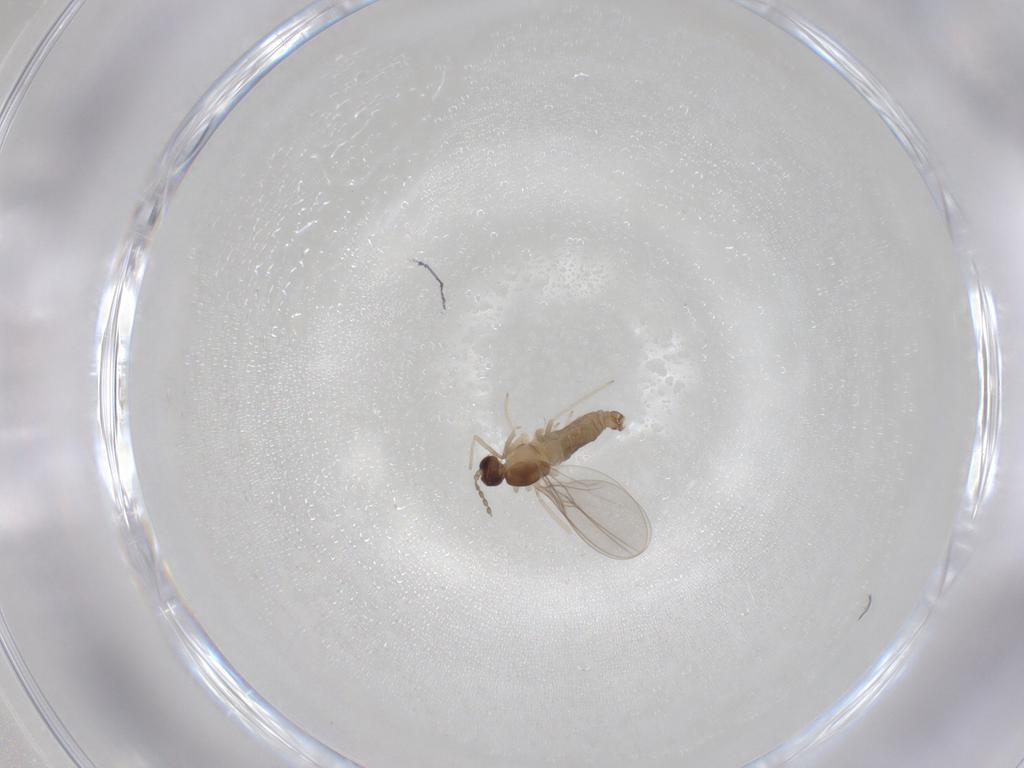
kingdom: Animalia
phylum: Arthropoda
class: Insecta
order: Diptera
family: Cecidomyiidae
